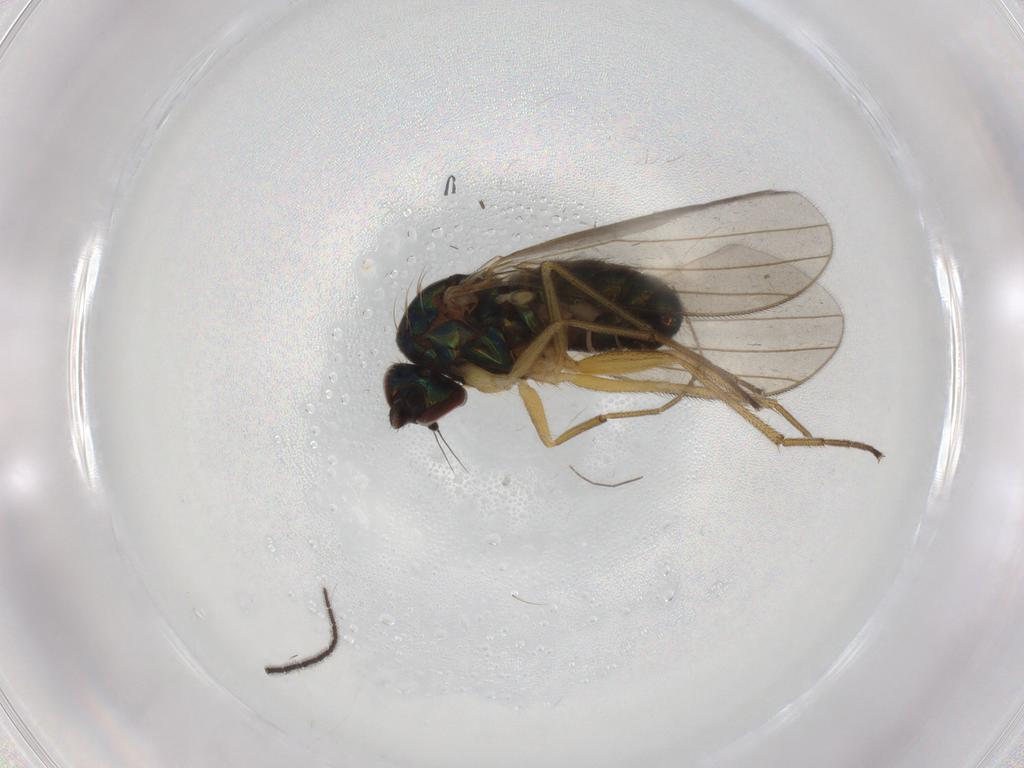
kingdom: Animalia
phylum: Arthropoda
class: Insecta
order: Diptera
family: Dolichopodidae
